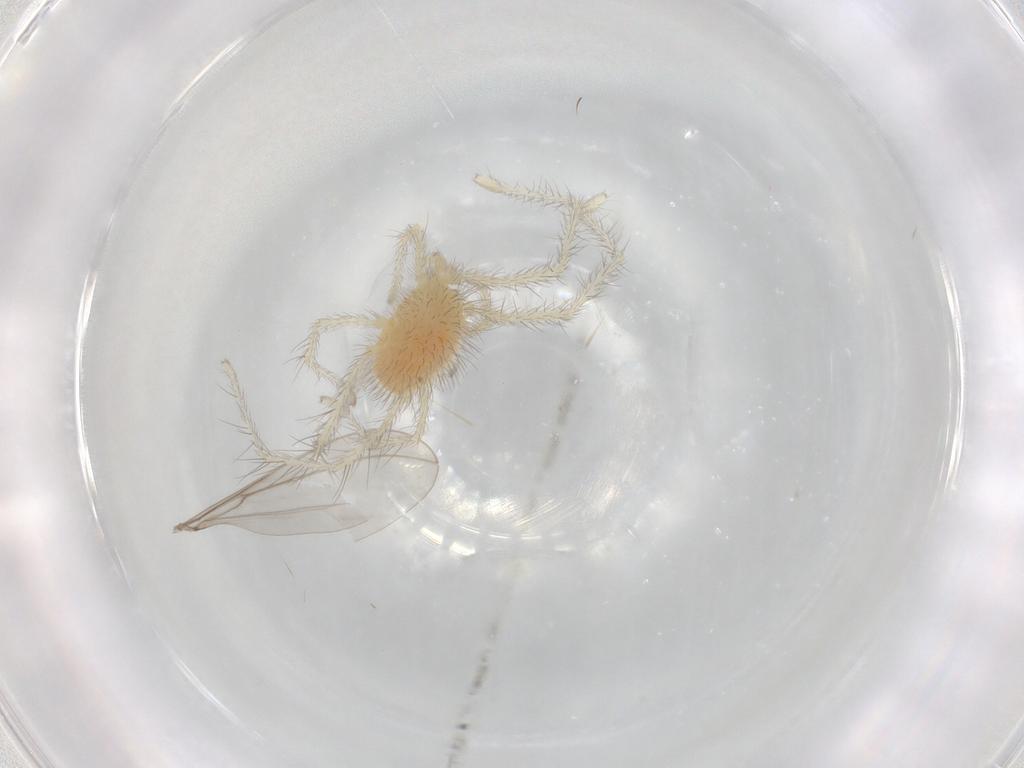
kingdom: Animalia
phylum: Arthropoda
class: Arachnida
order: Trombidiformes
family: Erythraeidae
